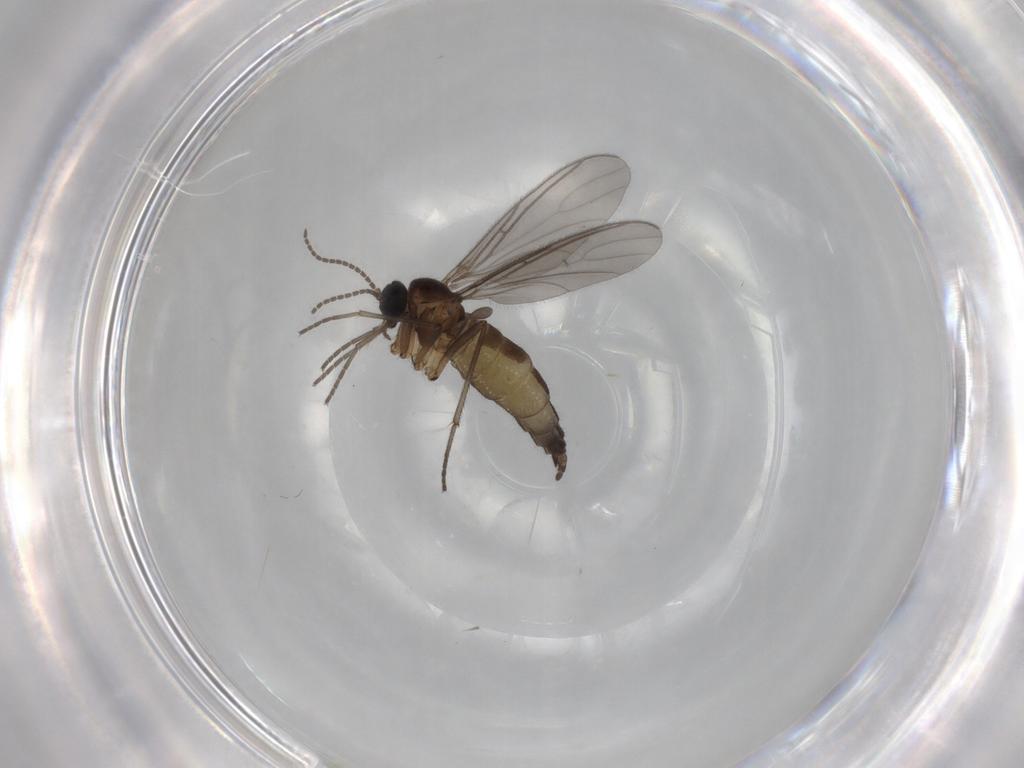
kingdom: Animalia
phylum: Arthropoda
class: Insecta
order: Diptera
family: Sciaridae
